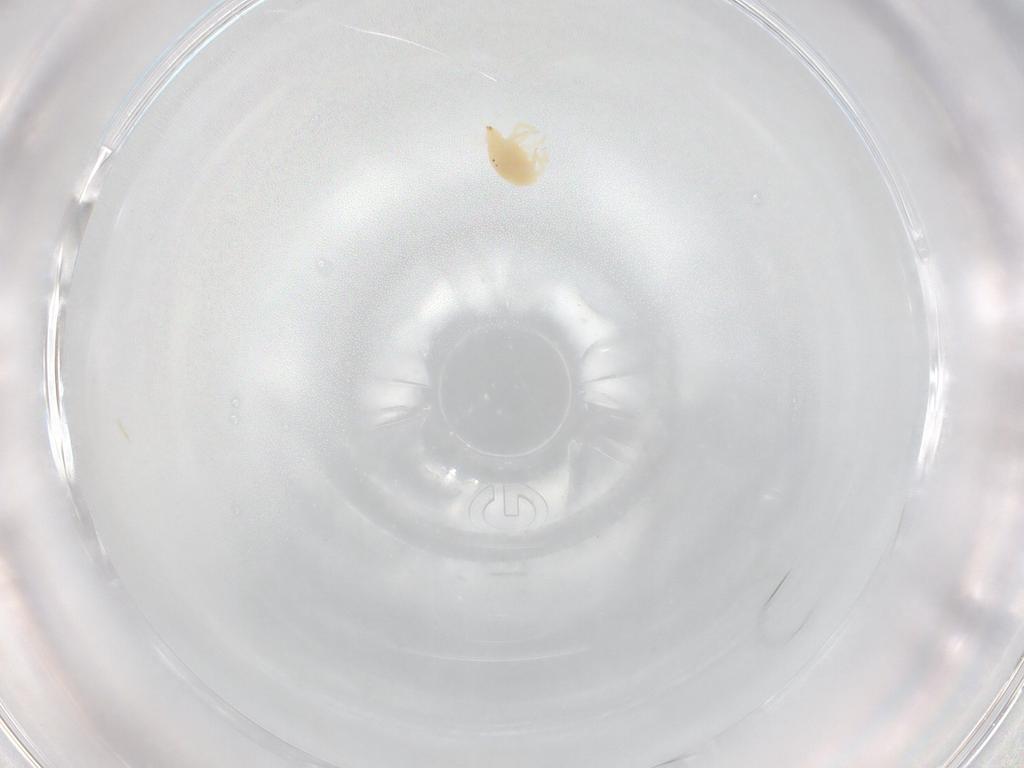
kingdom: Animalia
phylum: Arthropoda
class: Arachnida
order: Trombidiformes
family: Bdellidae
